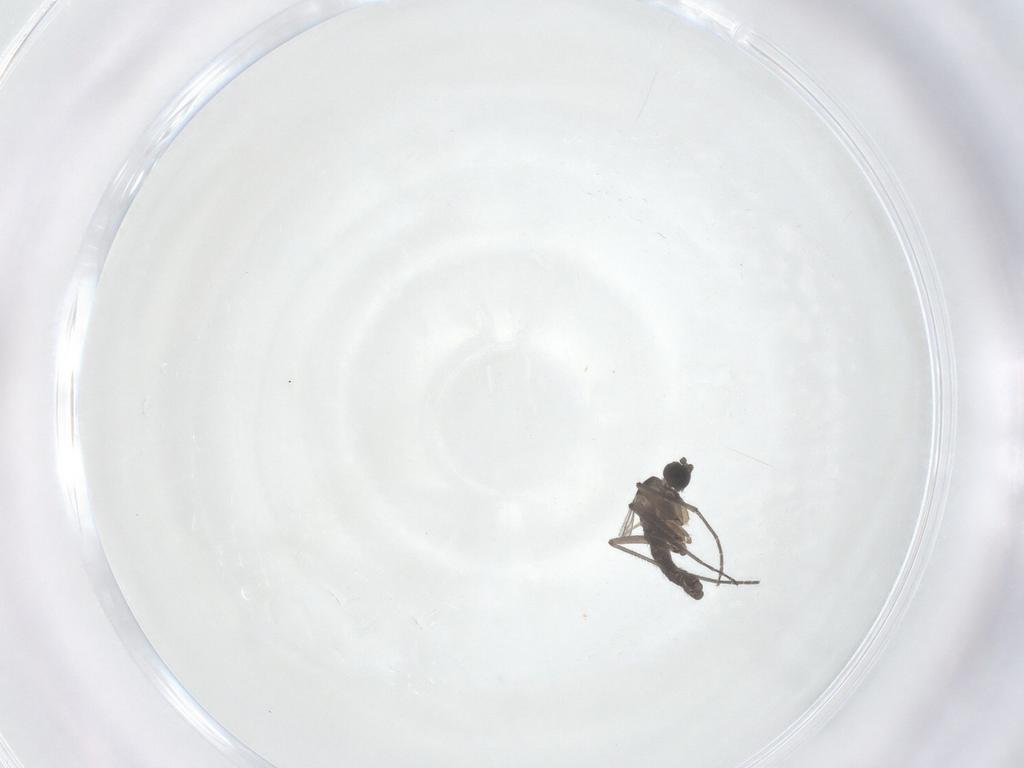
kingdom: Animalia
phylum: Arthropoda
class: Insecta
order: Diptera
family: Sciaridae
